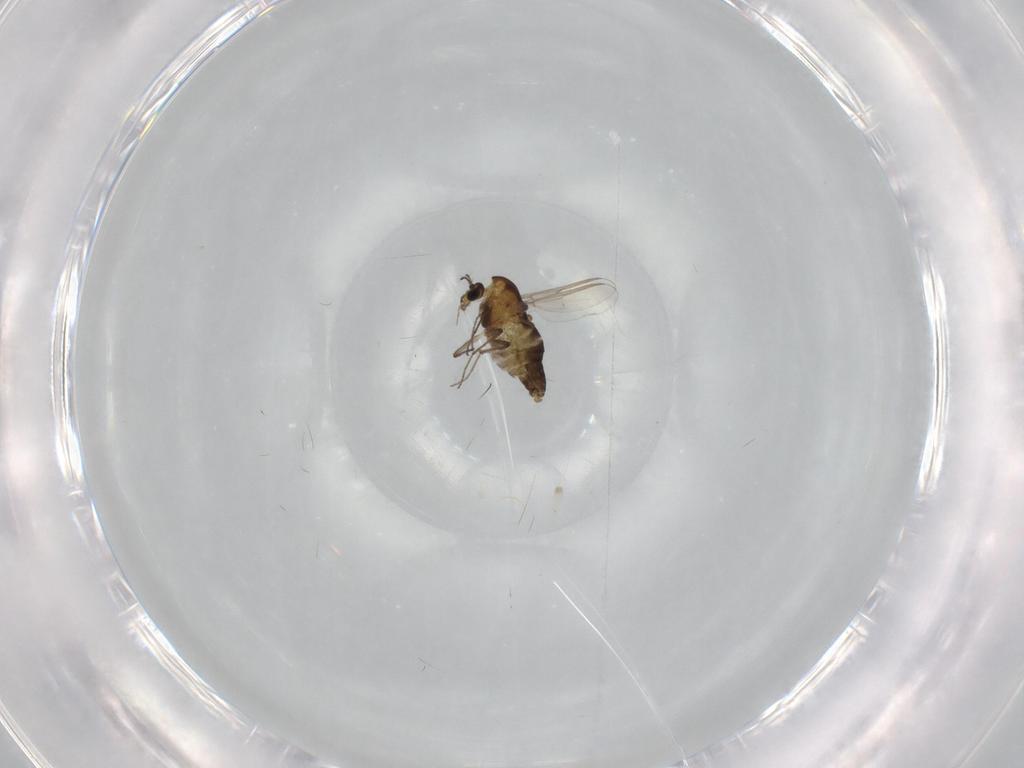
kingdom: Animalia
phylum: Arthropoda
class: Insecta
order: Diptera
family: Chironomidae
